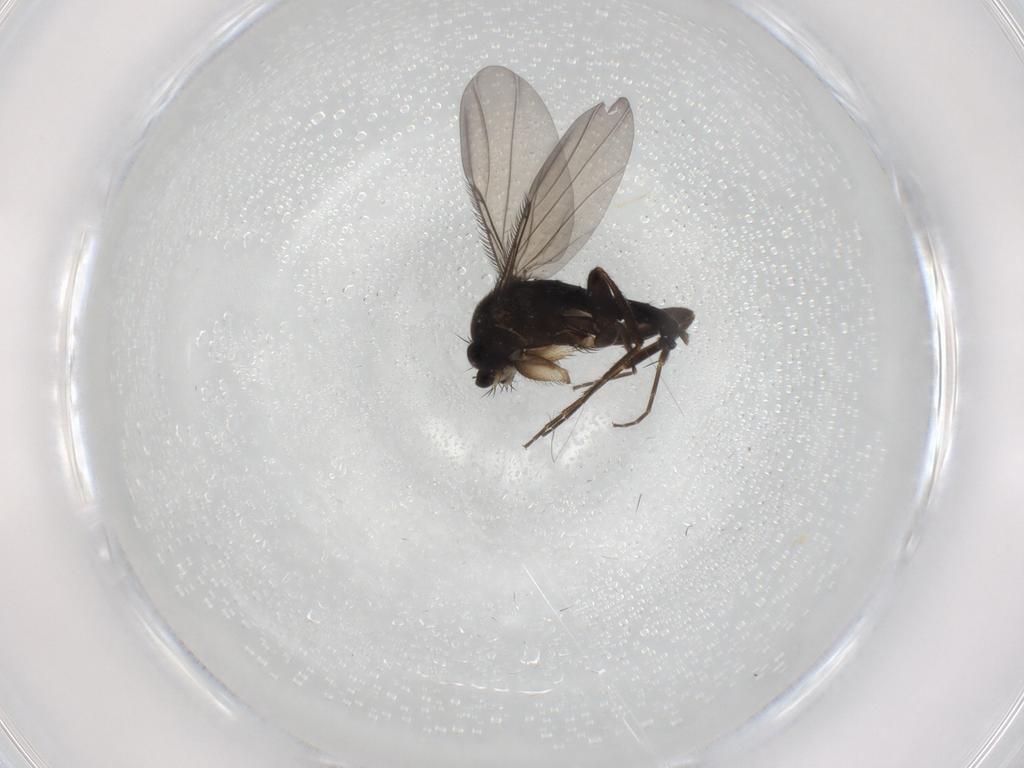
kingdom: Animalia
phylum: Arthropoda
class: Insecta
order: Diptera
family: Phoridae
